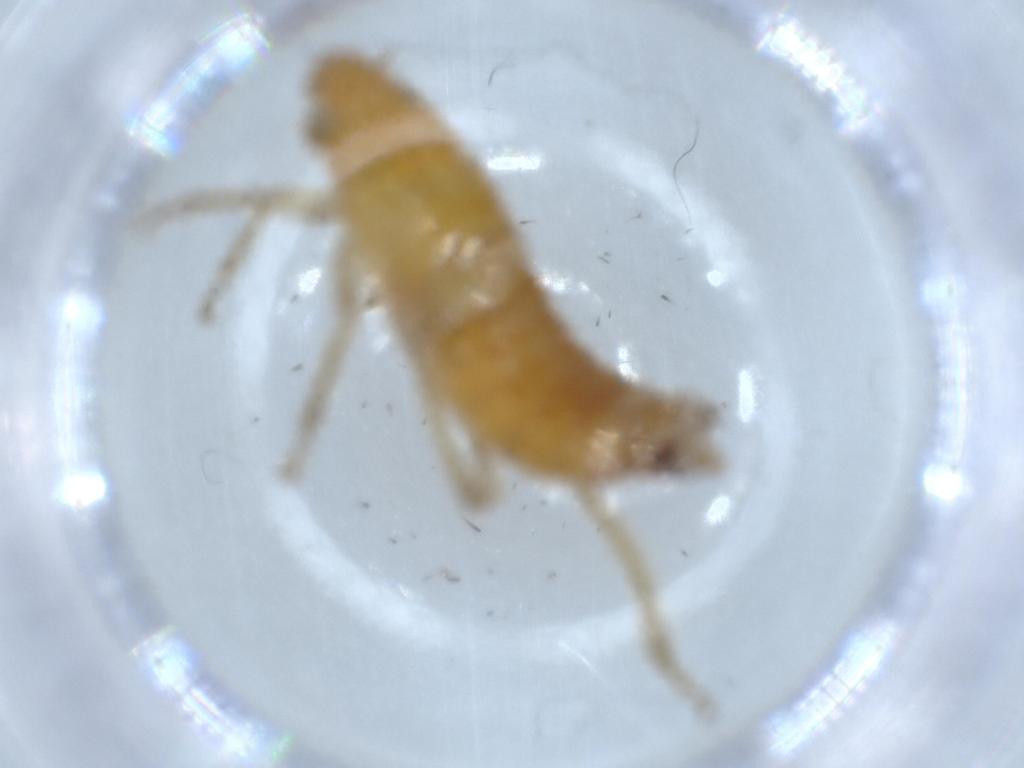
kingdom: Animalia
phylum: Arthropoda
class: Insecta
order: Hemiptera
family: Cicadellidae
